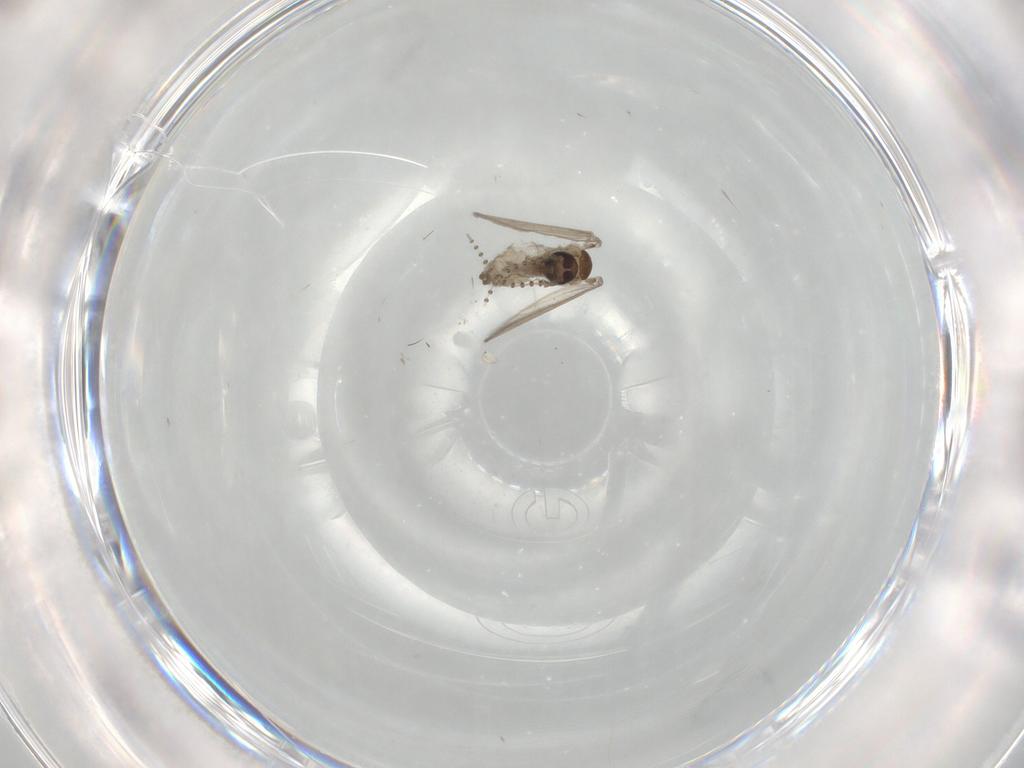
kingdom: Animalia
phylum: Arthropoda
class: Insecta
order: Diptera
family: Psychodidae
